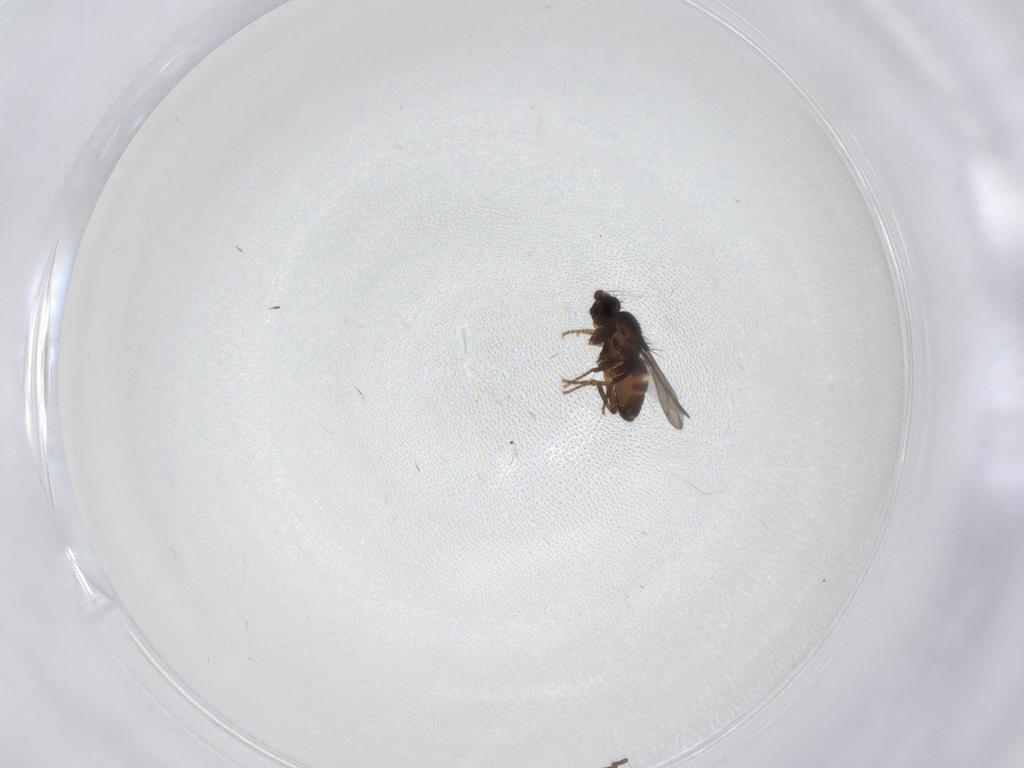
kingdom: Animalia
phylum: Arthropoda
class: Insecta
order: Diptera
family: Sphaeroceridae
